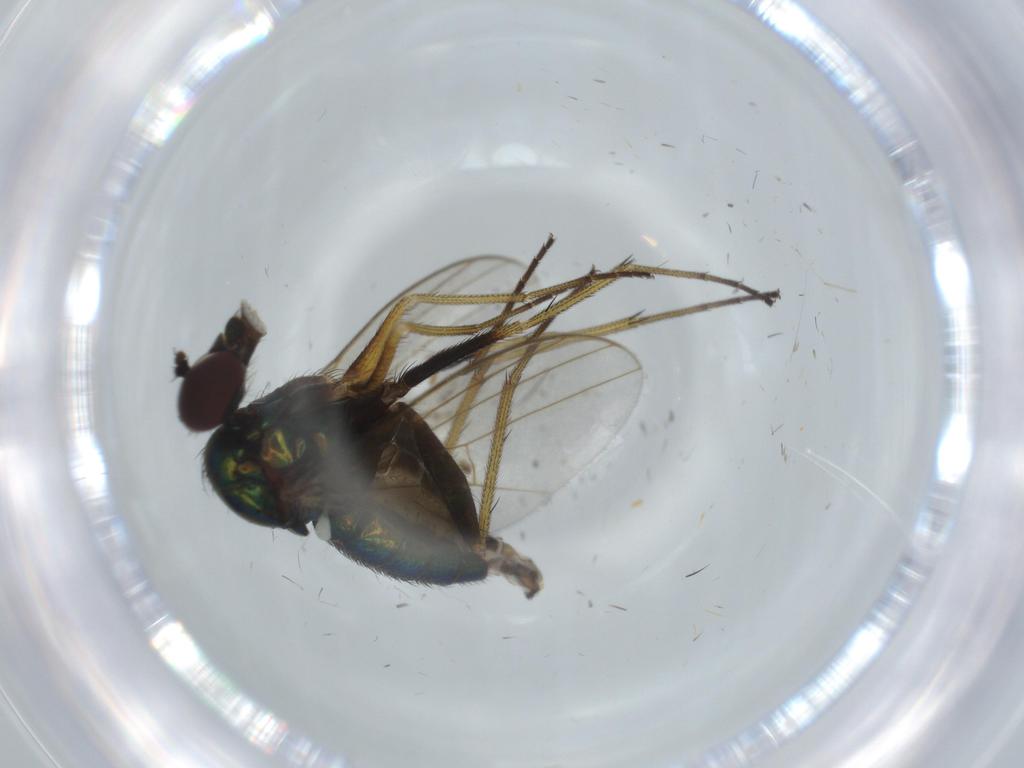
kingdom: Animalia
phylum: Arthropoda
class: Insecta
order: Diptera
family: Dolichopodidae
